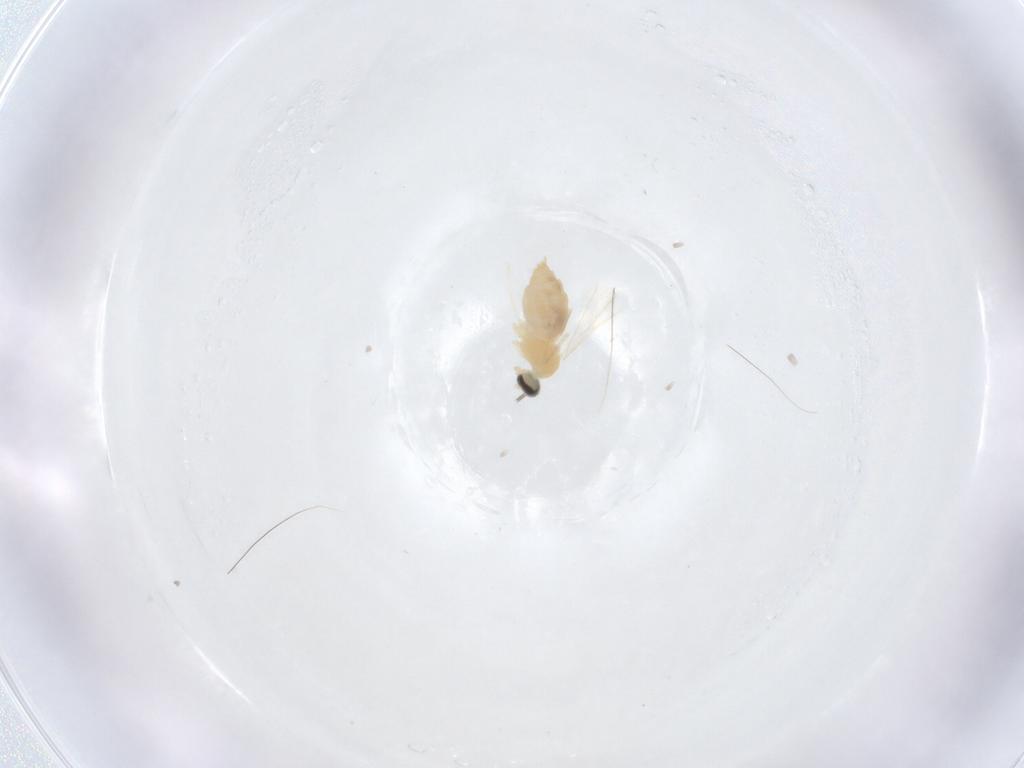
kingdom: Animalia
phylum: Arthropoda
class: Insecta
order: Diptera
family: Cecidomyiidae
